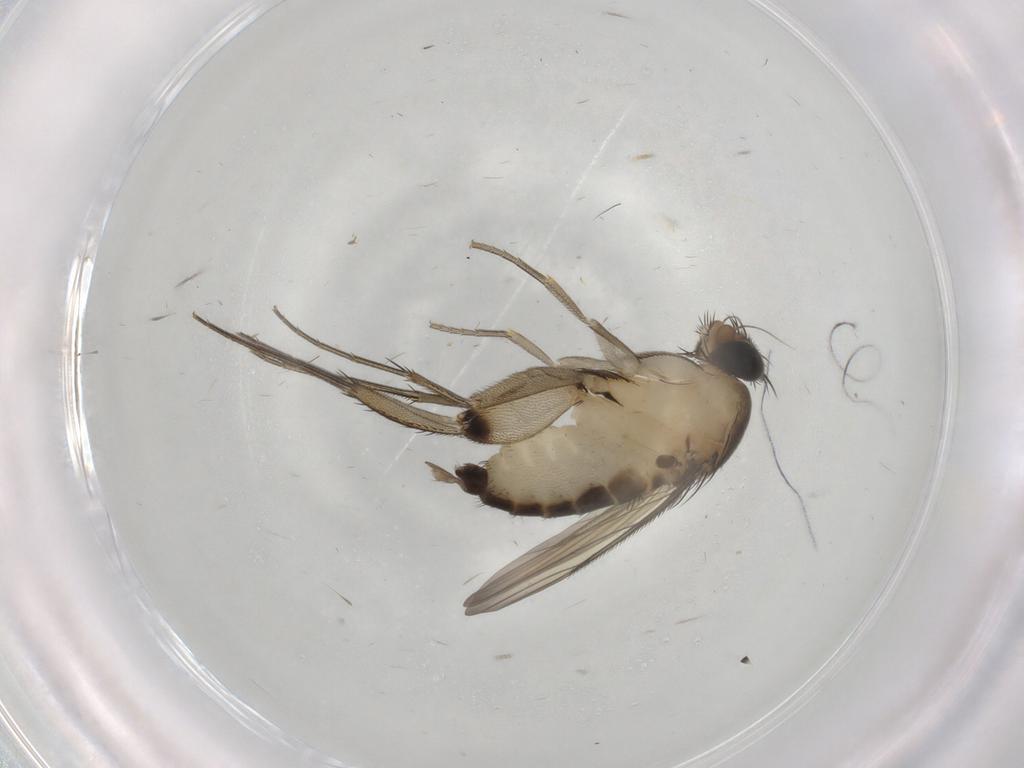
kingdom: Animalia
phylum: Arthropoda
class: Insecta
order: Diptera
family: Phoridae
